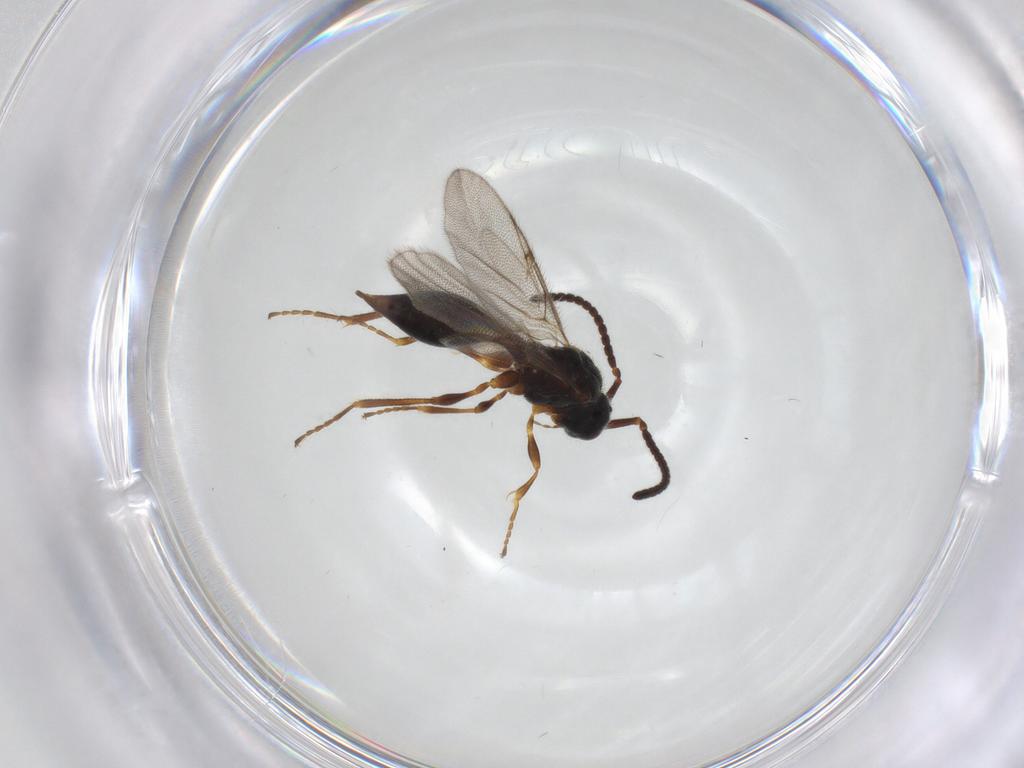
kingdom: Animalia
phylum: Arthropoda
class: Insecta
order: Hymenoptera
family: Diapriidae
